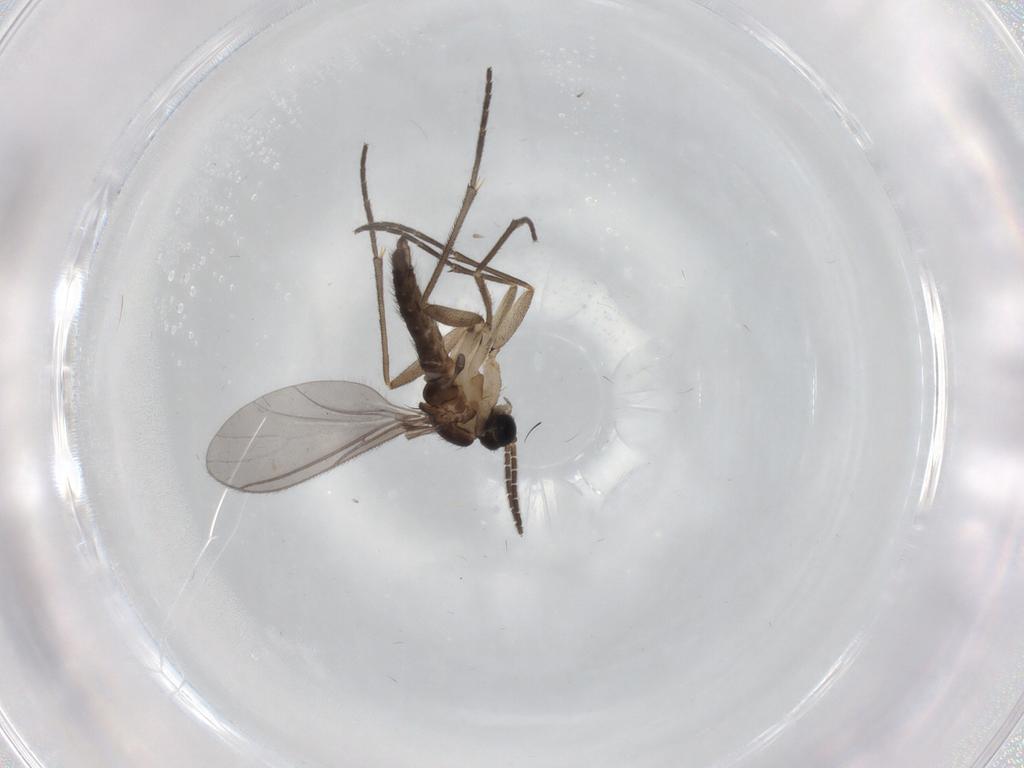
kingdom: Animalia
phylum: Arthropoda
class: Insecta
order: Diptera
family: Sciaridae
